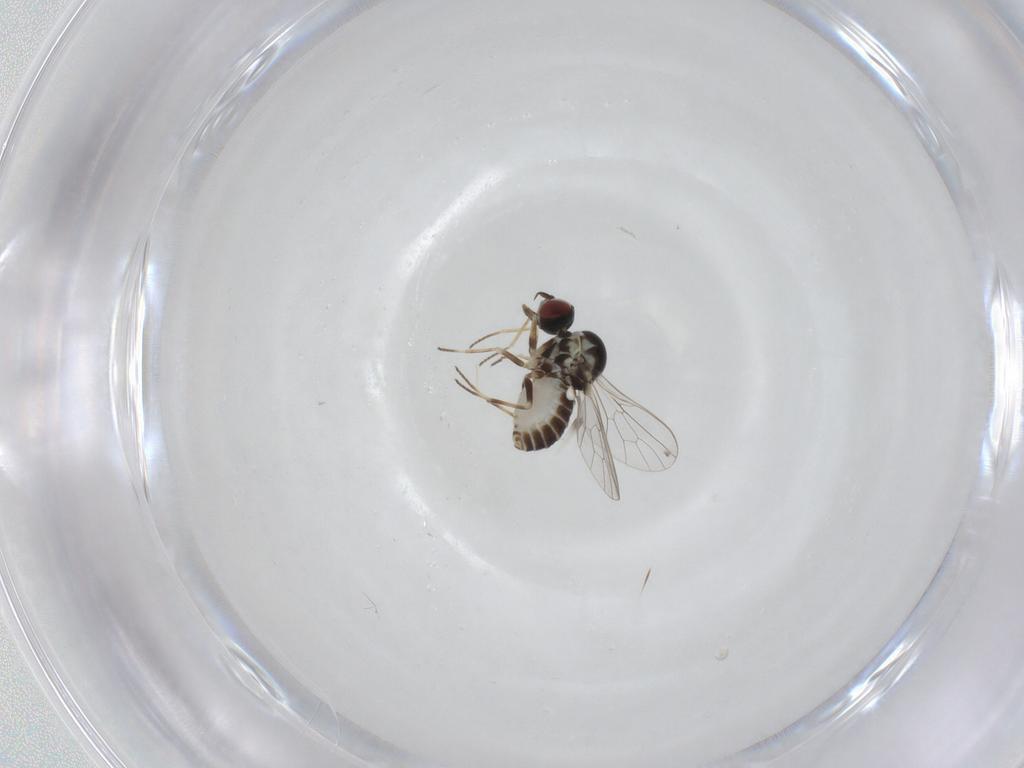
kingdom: Animalia
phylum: Arthropoda
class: Insecta
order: Diptera
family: Mythicomyiidae
